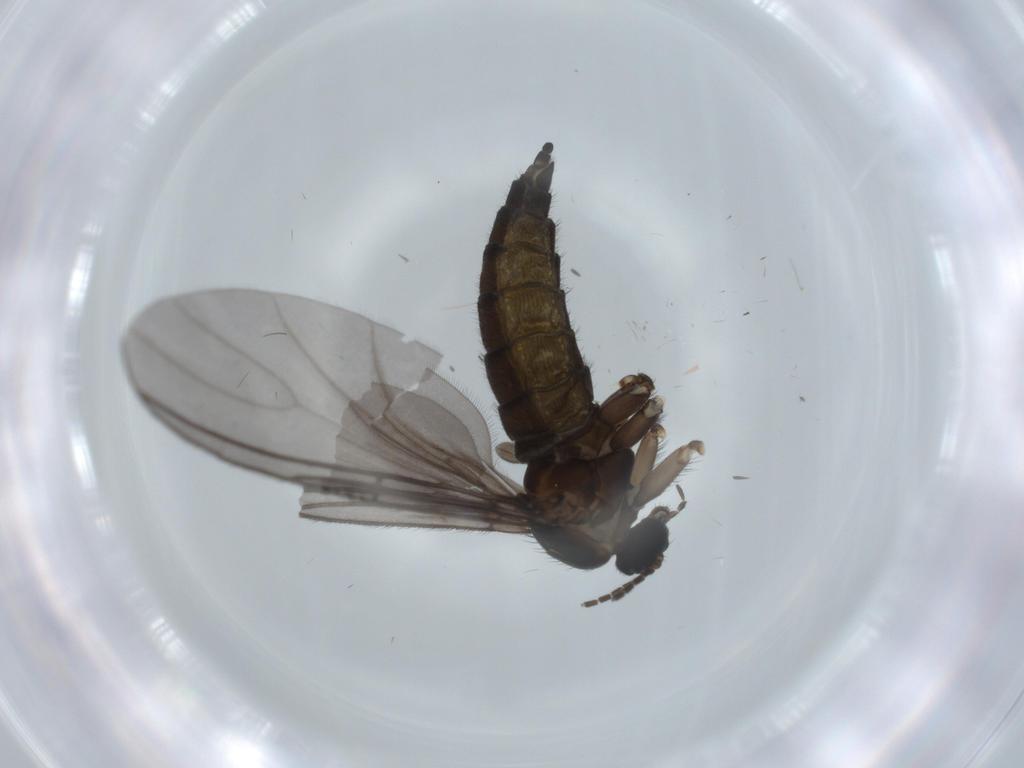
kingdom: Animalia
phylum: Arthropoda
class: Insecta
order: Diptera
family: Sciaridae
